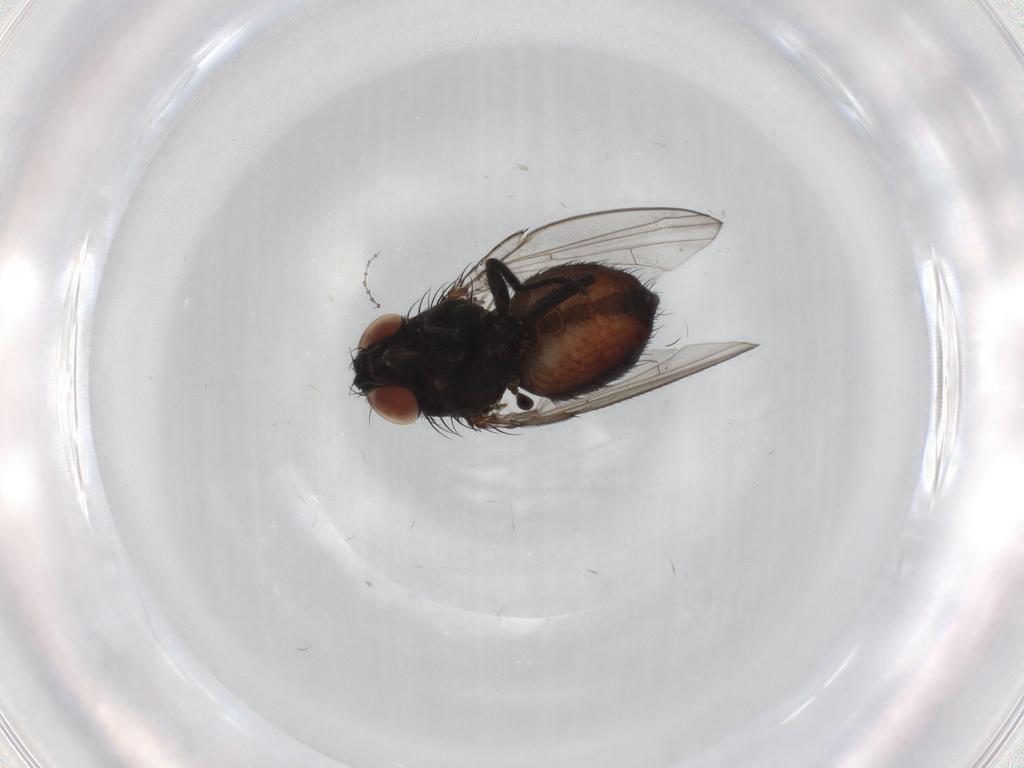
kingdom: Animalia
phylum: Arthropoda
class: Insecta
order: Diptera
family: Milichiidae
